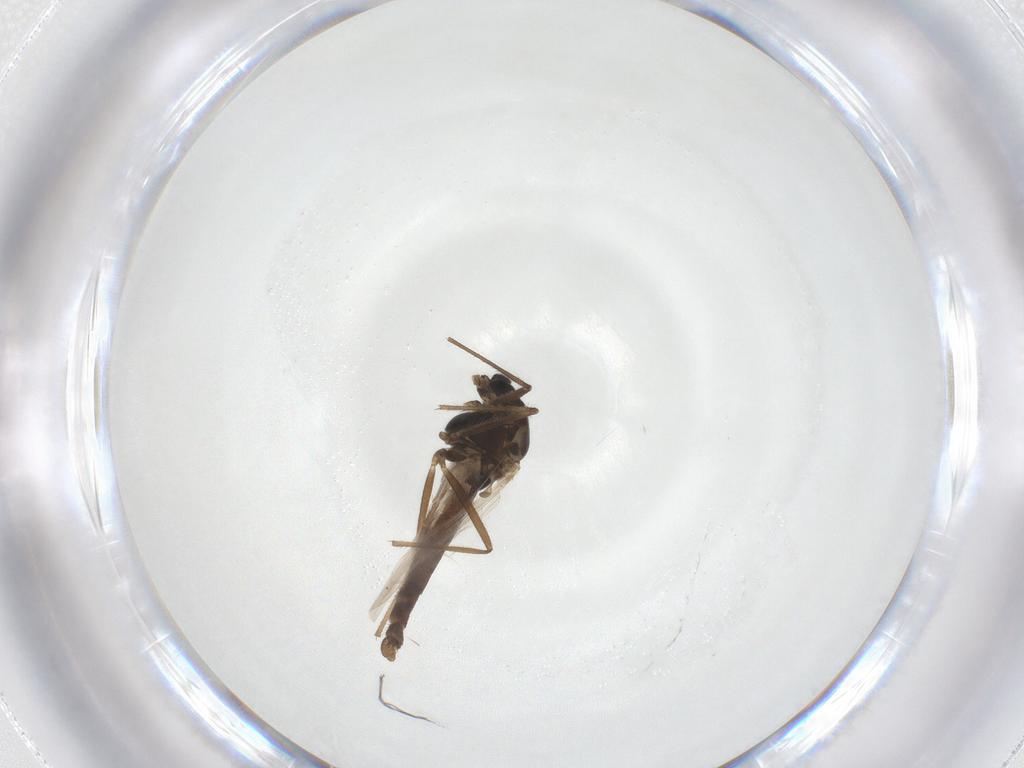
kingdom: Animalia
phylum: Arthropoda
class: Insecta
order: Diptera
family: Chironomidae
